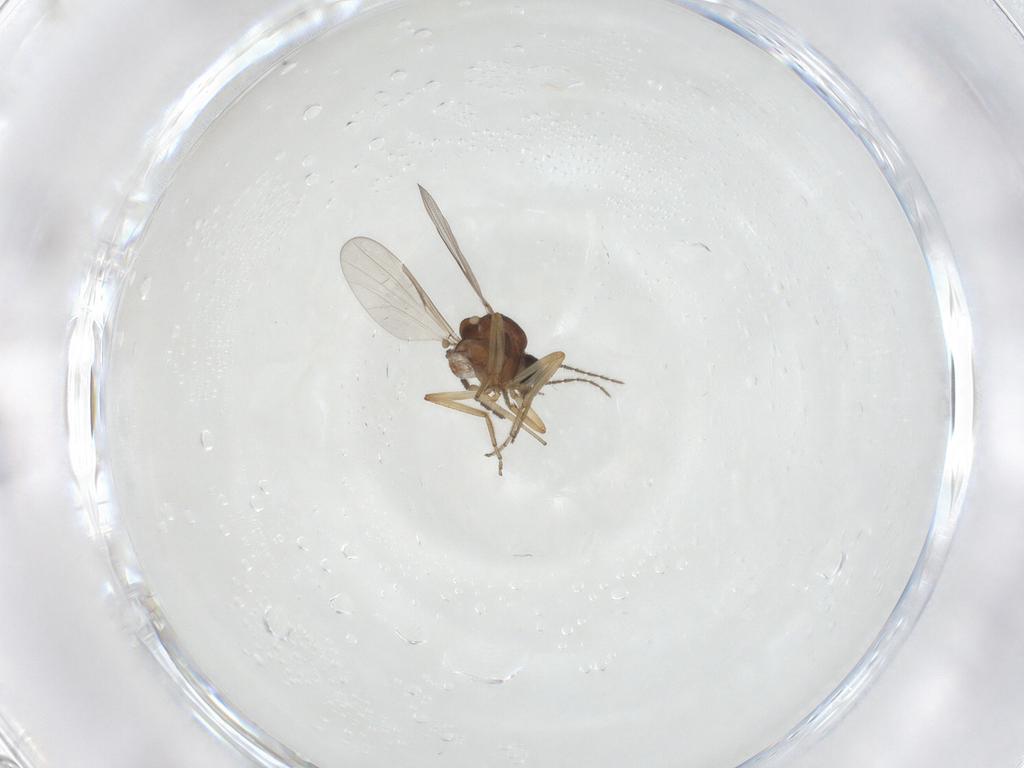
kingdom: Animalia
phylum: Arthropoda
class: Insecta
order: Diptera
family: Ceratopogonidae
